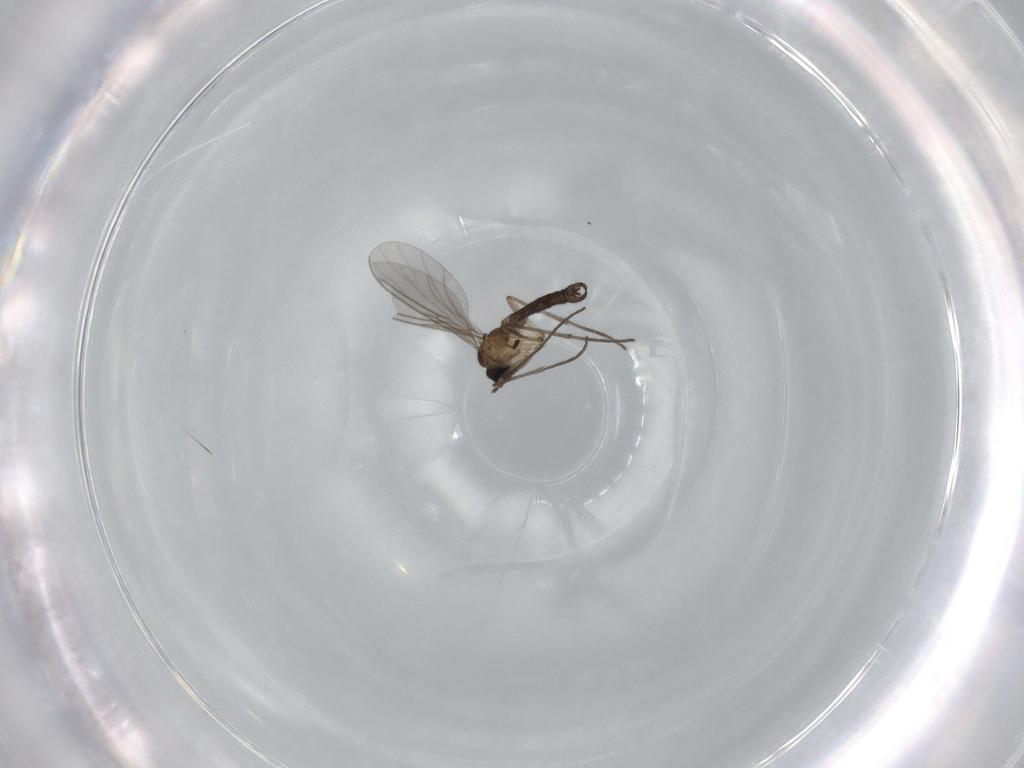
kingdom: Animalia
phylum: Arthropoda
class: Insecta
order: Diptera
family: Sciaridae
